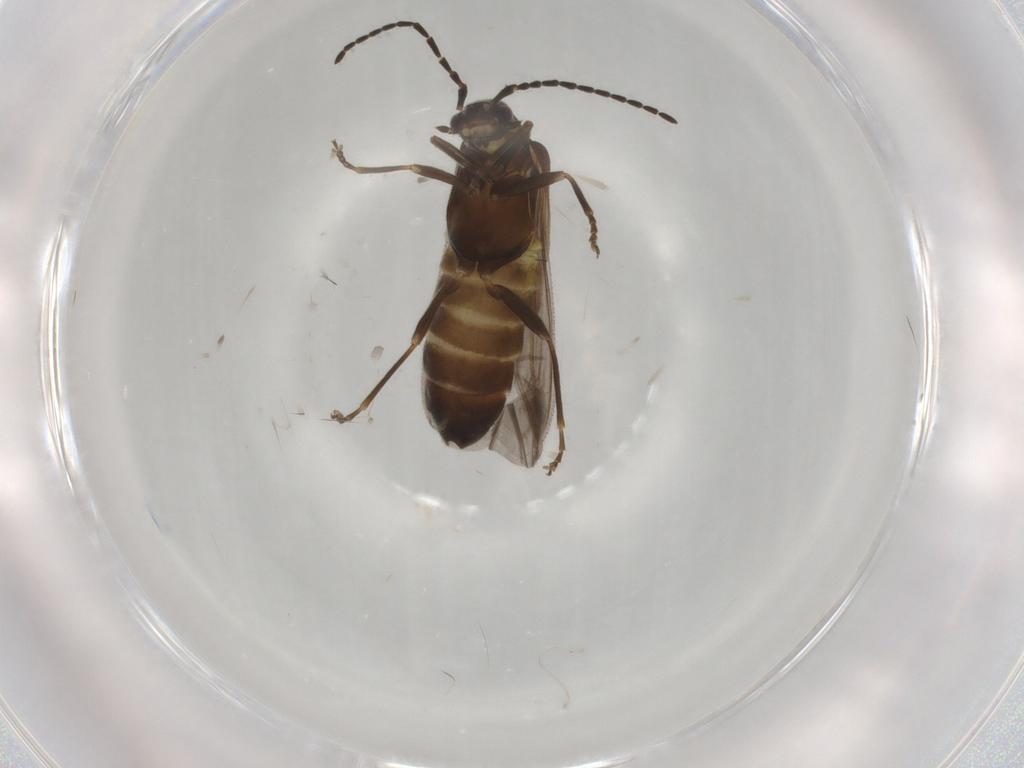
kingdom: Animalia
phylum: Arthropoda
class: Insecta
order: Coleoptera
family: Cantharidae
